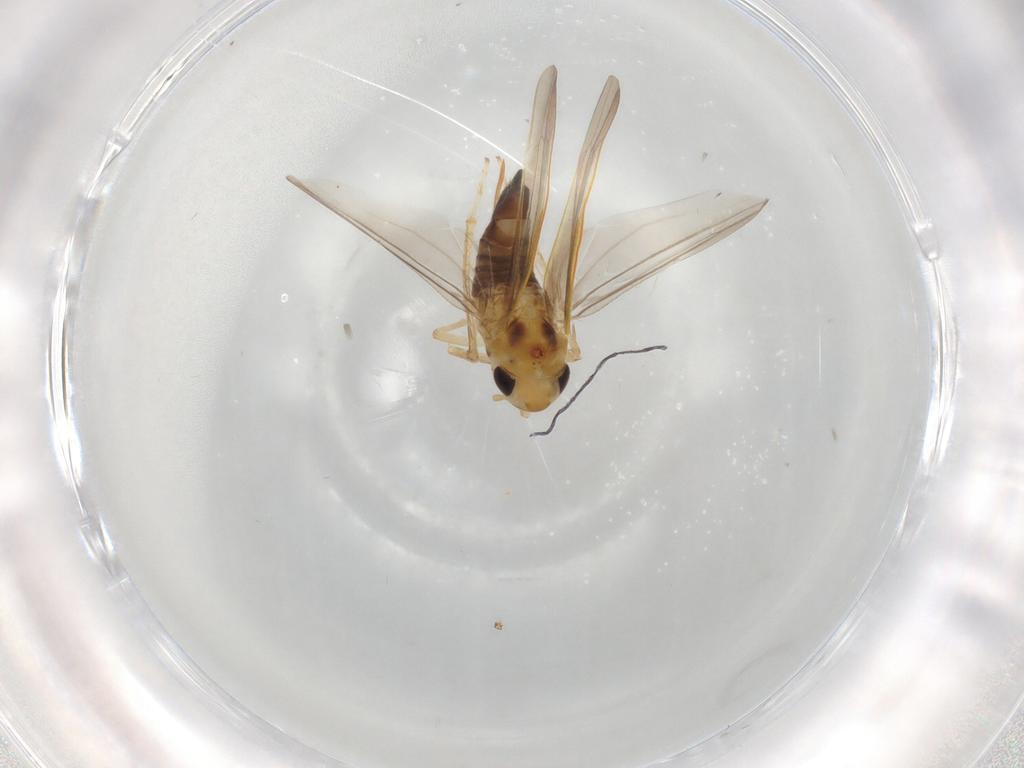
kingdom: Animalia
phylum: Arthropoda
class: Insecta
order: Hemiptera
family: Cicadellidae
